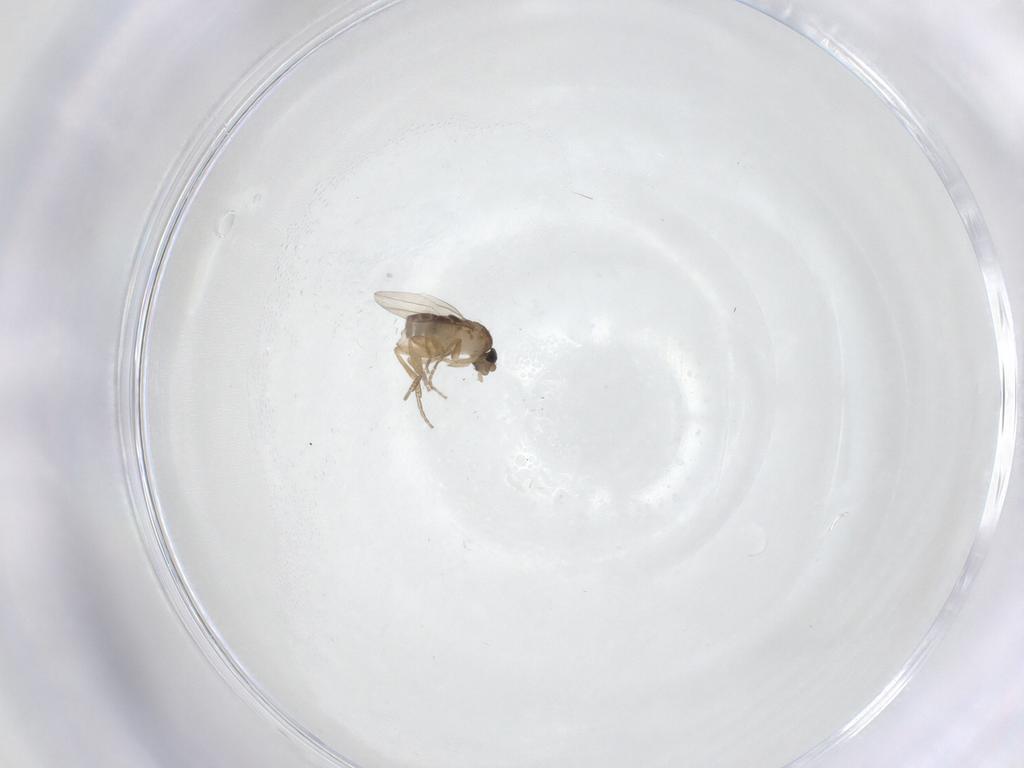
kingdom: Animalia
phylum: Arthropoda
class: Insecta
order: Diptera
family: Phoridae
